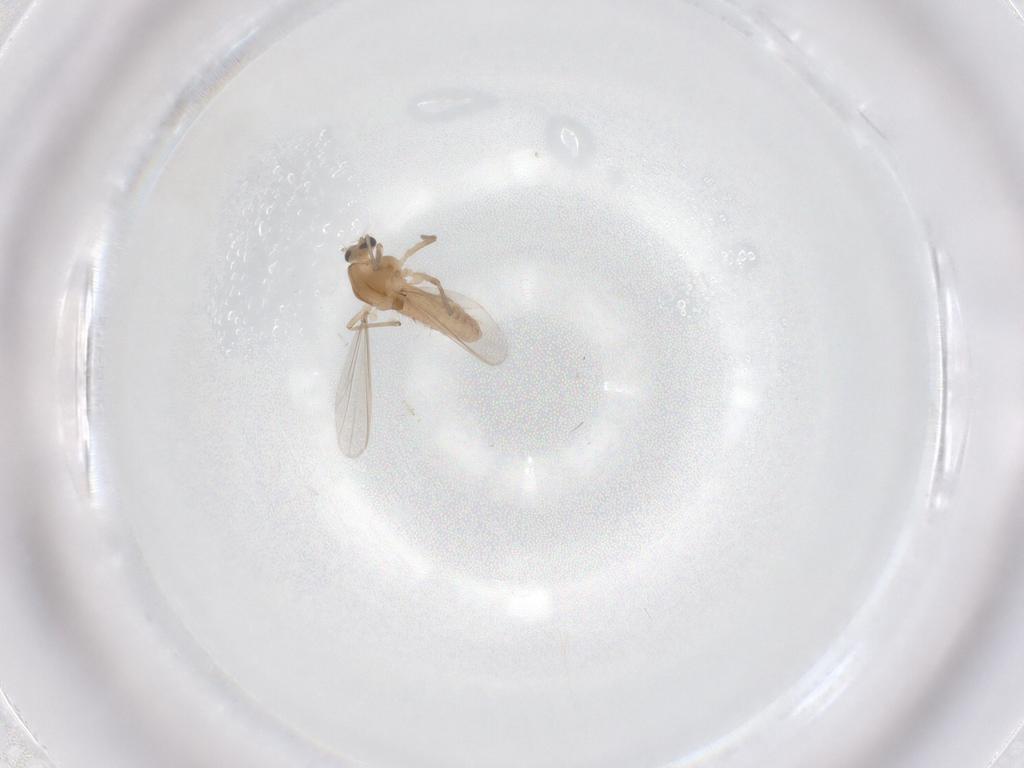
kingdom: Animalia
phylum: Arthropoda
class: Insecta
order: Diptera
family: Chironomidae
